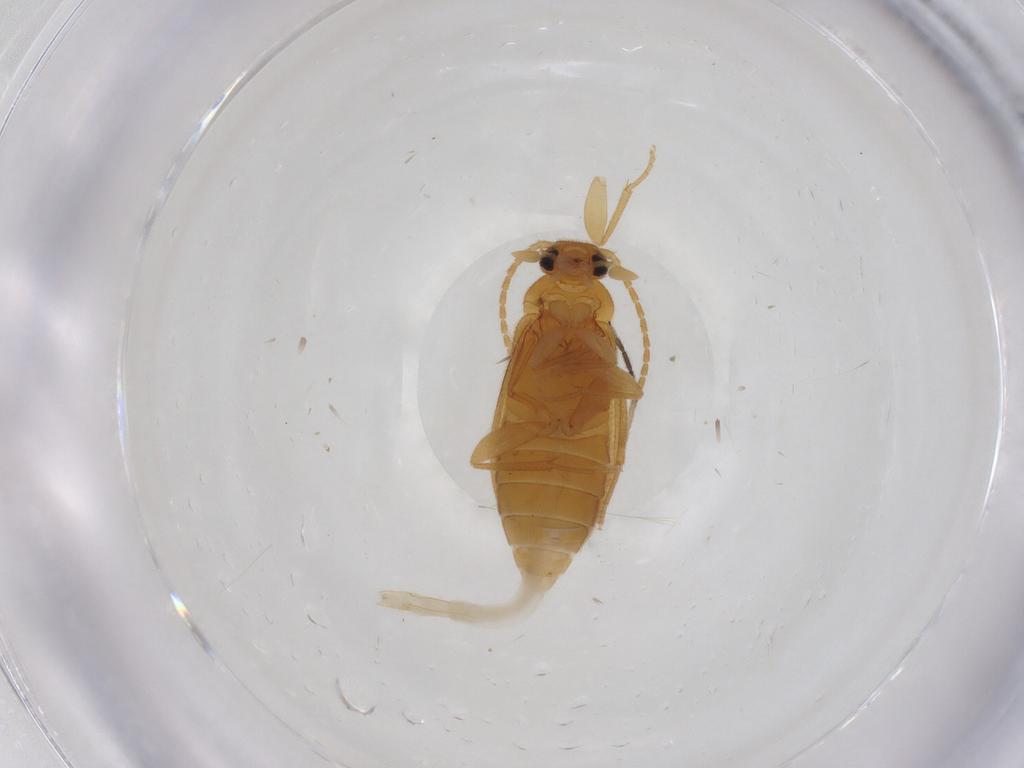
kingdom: Animalia
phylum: Arthropoda
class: Insecta
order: Coleoptera
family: Scraptiidae
